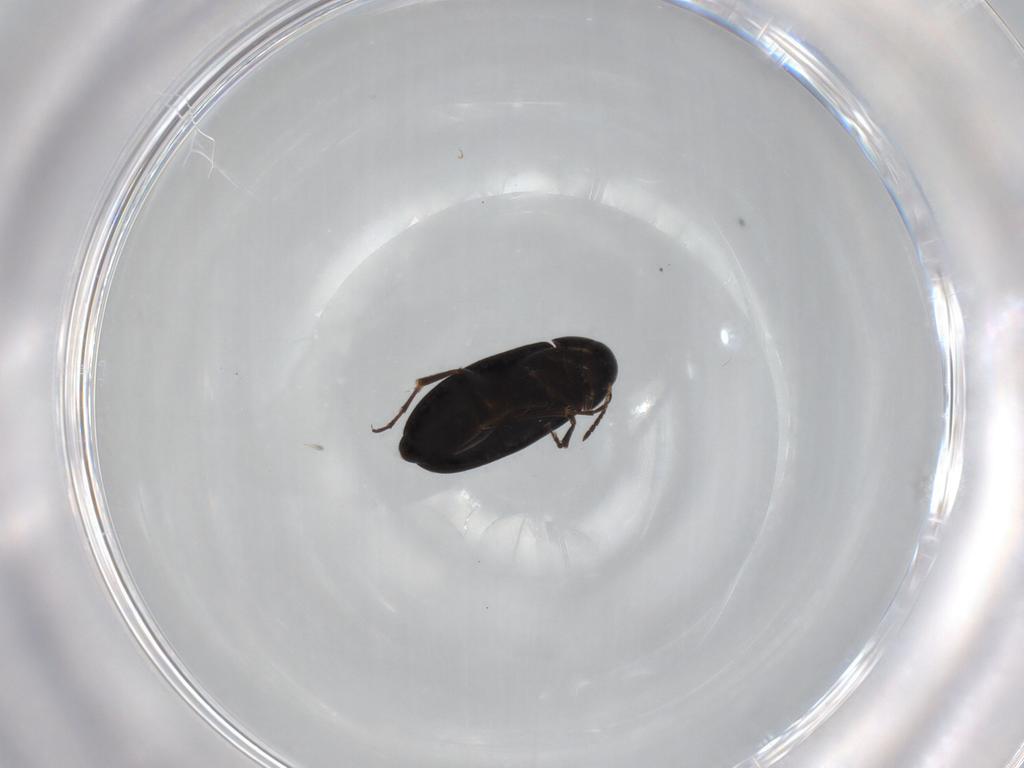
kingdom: Animalia
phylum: Arthropoda
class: Insecta
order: Coleoptera
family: Scraptiidae
